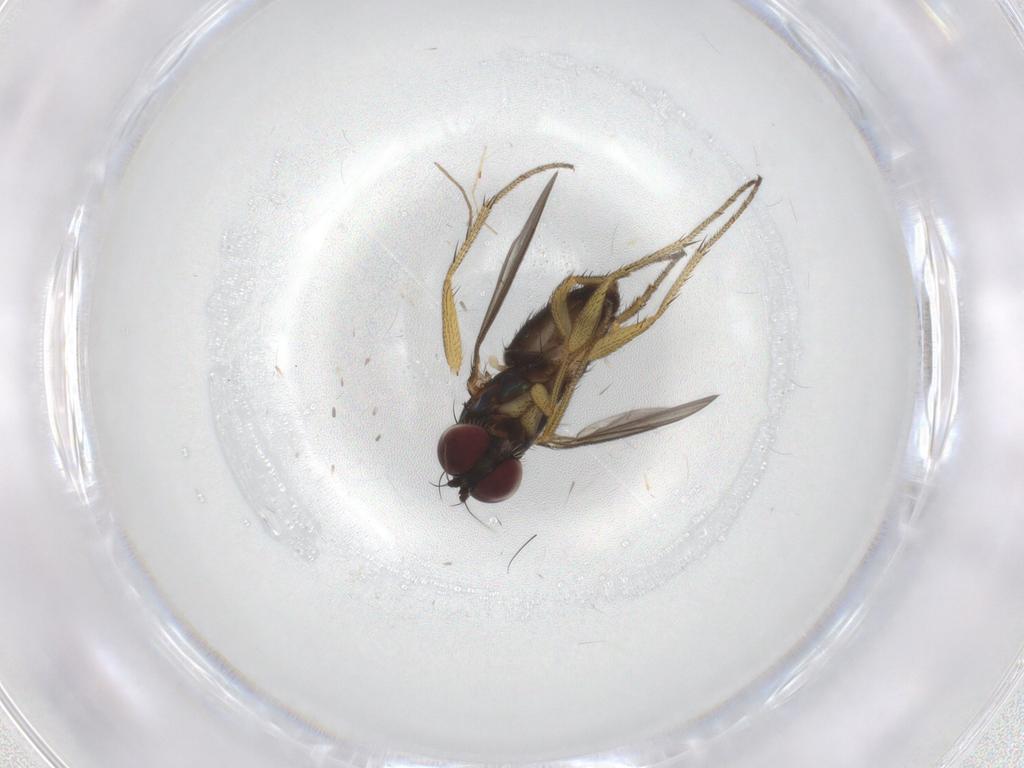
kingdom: Animalia
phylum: Arthropoda
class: Insecta
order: Diptera
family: Dolichopodidae
